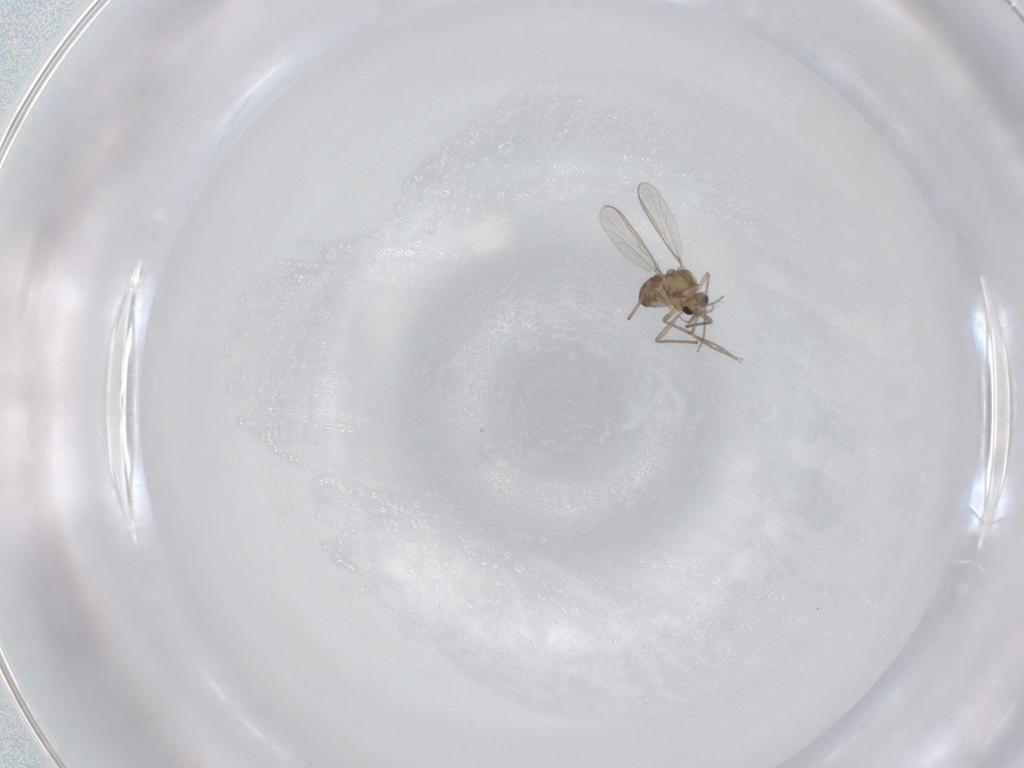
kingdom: Animalia
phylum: Arthropoda
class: Insecta
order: Diptera
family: Chironomidae
